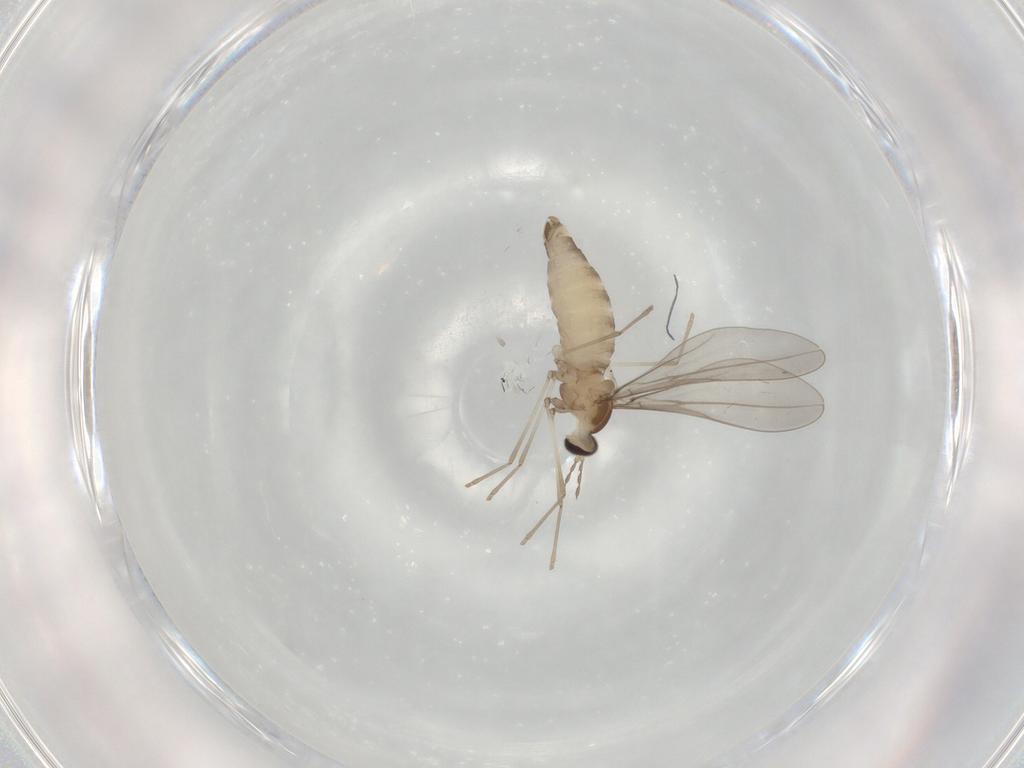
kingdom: Animalia
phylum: Arthropoda
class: Insecta
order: Diptera
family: Cecidomyiidae
